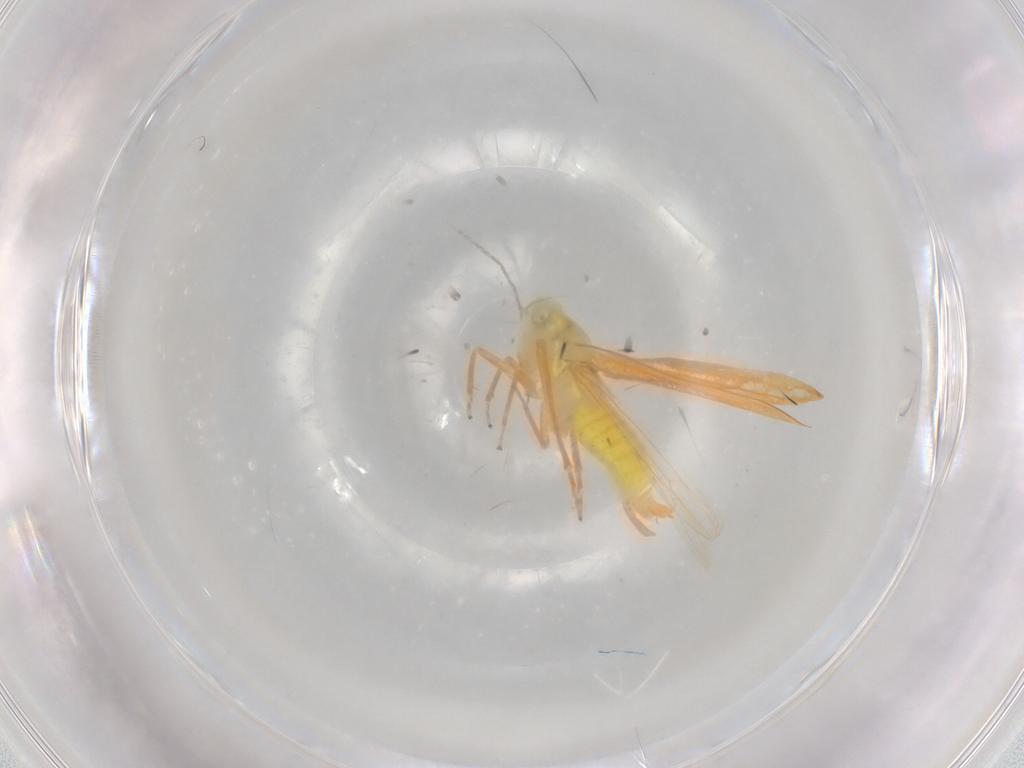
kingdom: Animalia
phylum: Arthropoda
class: Insecta
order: Hemiptera
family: Cicadellidae
